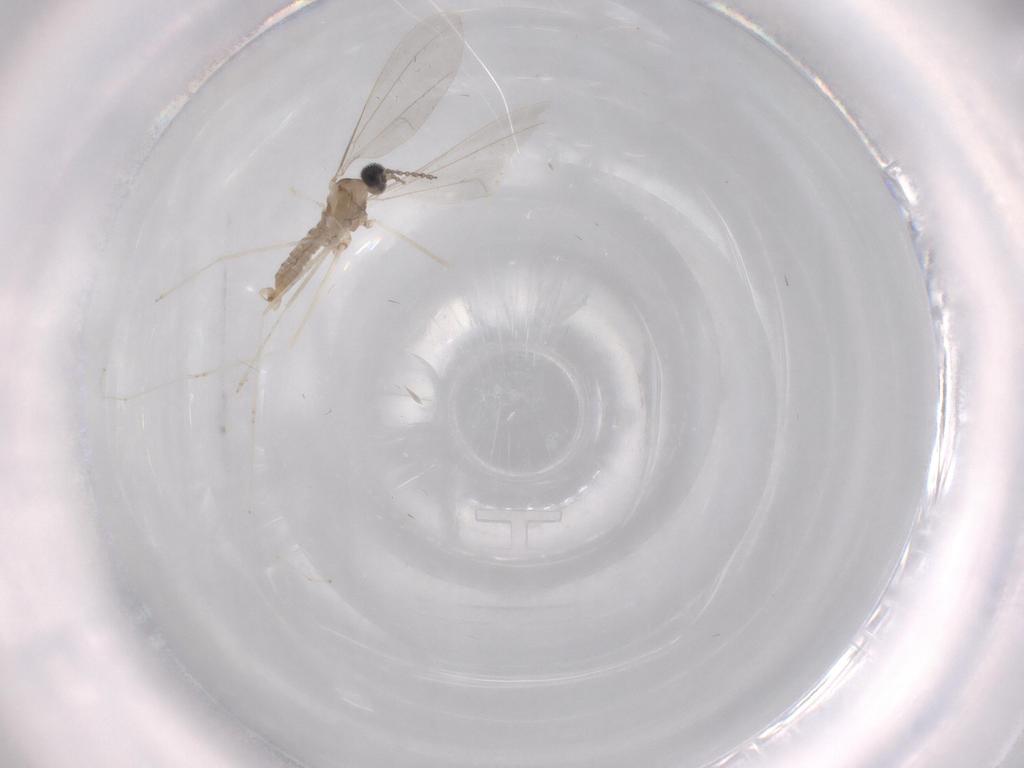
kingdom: Animalia
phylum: Arthropoda
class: Insecta
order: Diptera
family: Cecidomyiidae
